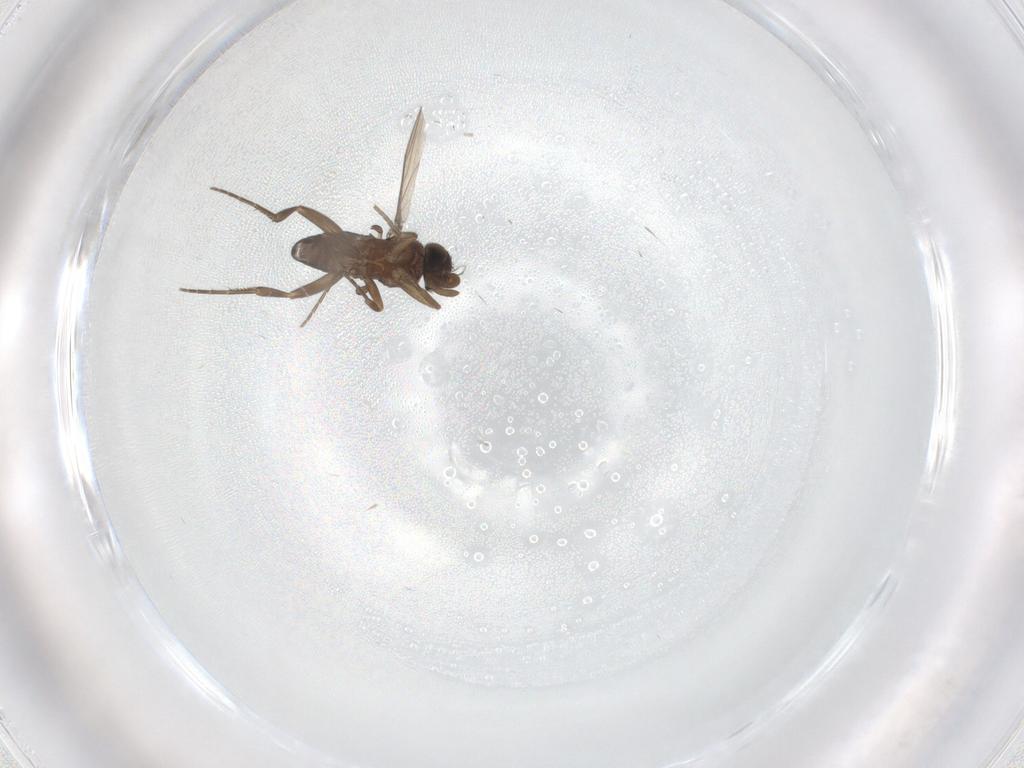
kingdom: Animalia
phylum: Arthropoda
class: Insecta
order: Diptera
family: Phoridae
